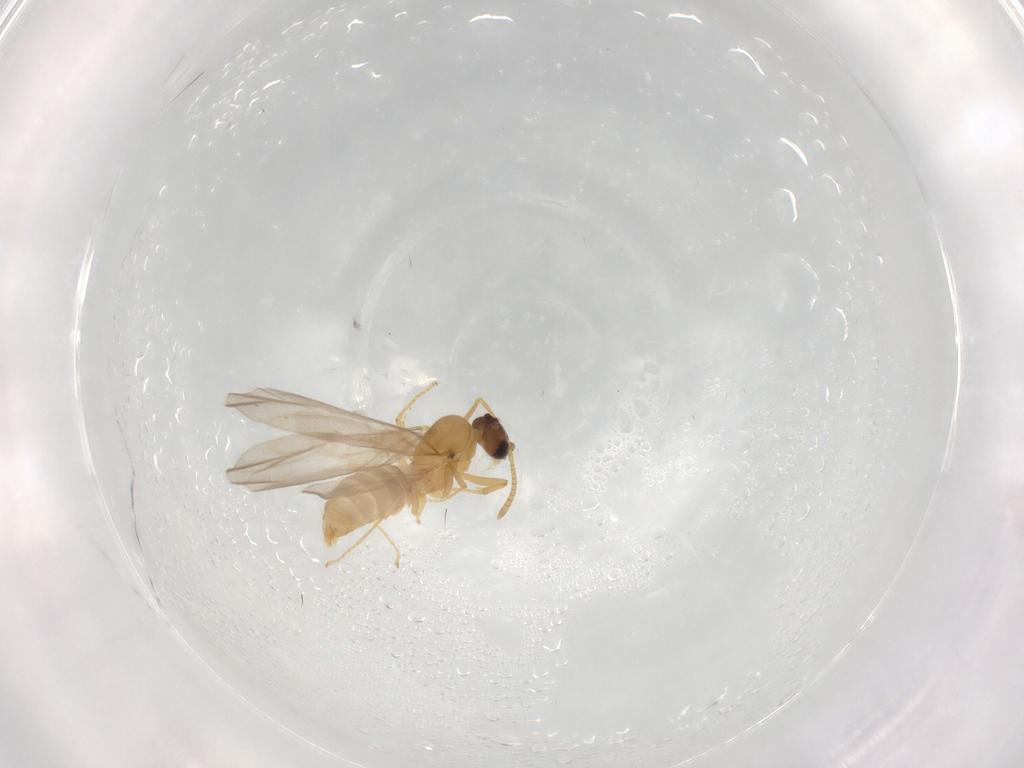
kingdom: Animalia
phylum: Arthropoda
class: Insecta
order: Hymenoptera
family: Formicidae
